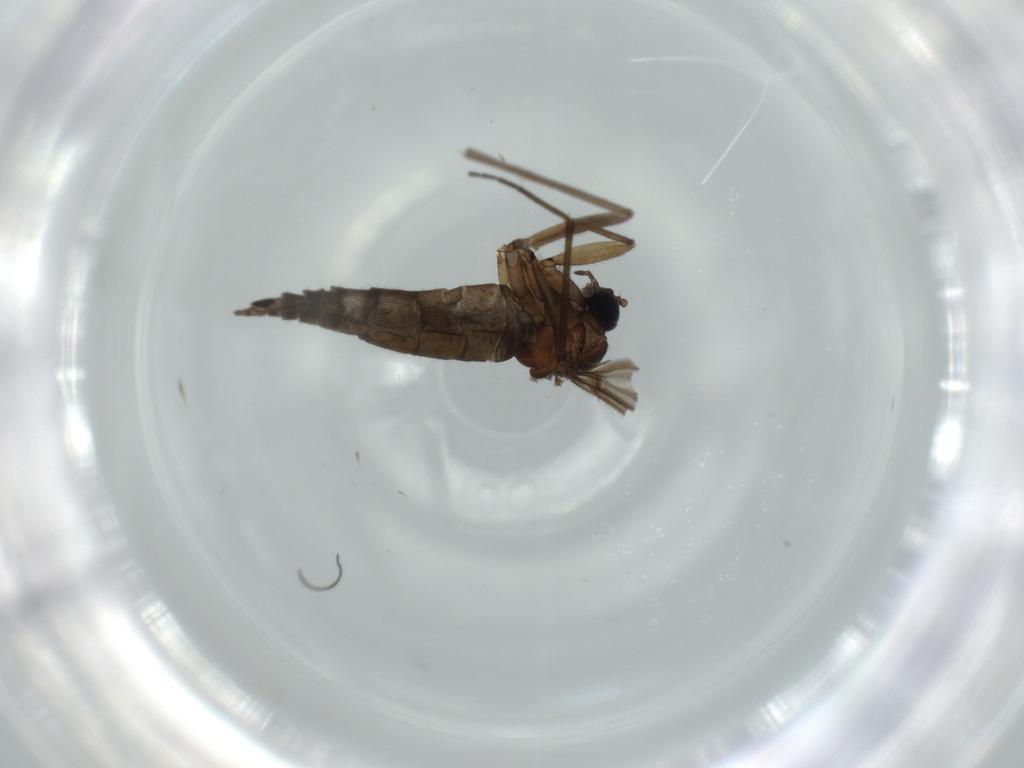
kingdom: Animalia
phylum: Arthropoda
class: Insecta
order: Diptera
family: Sciaridae
